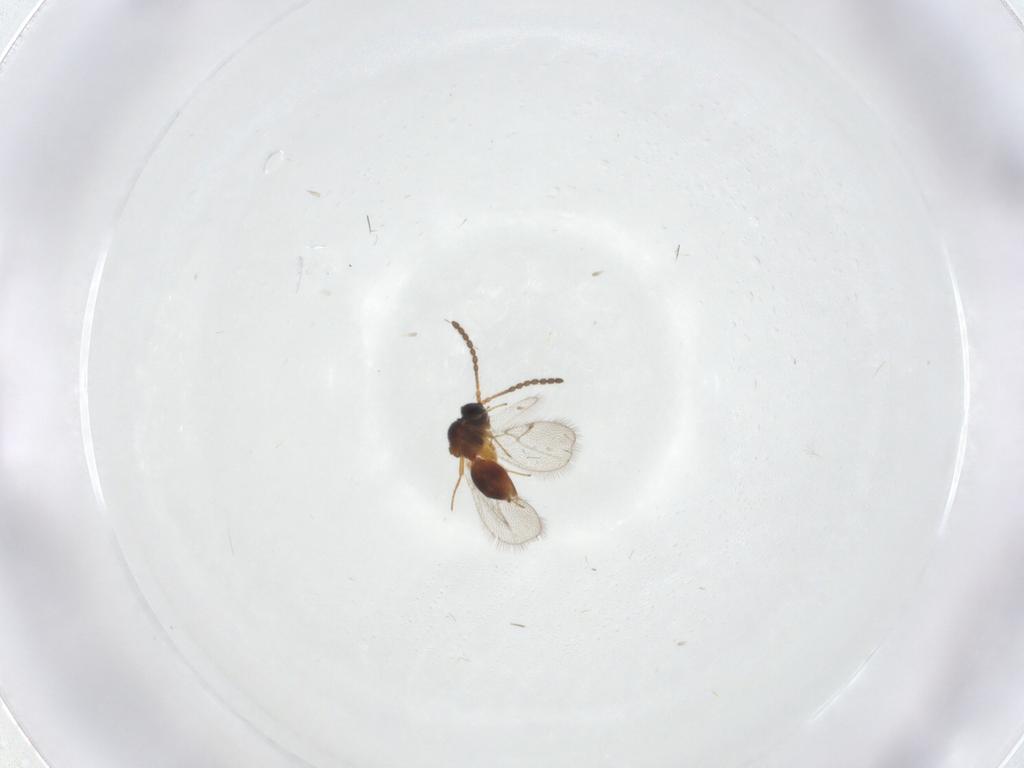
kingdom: Animalia
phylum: Arthropoda
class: Insecta
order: Hymenoptera
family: Figitidae
